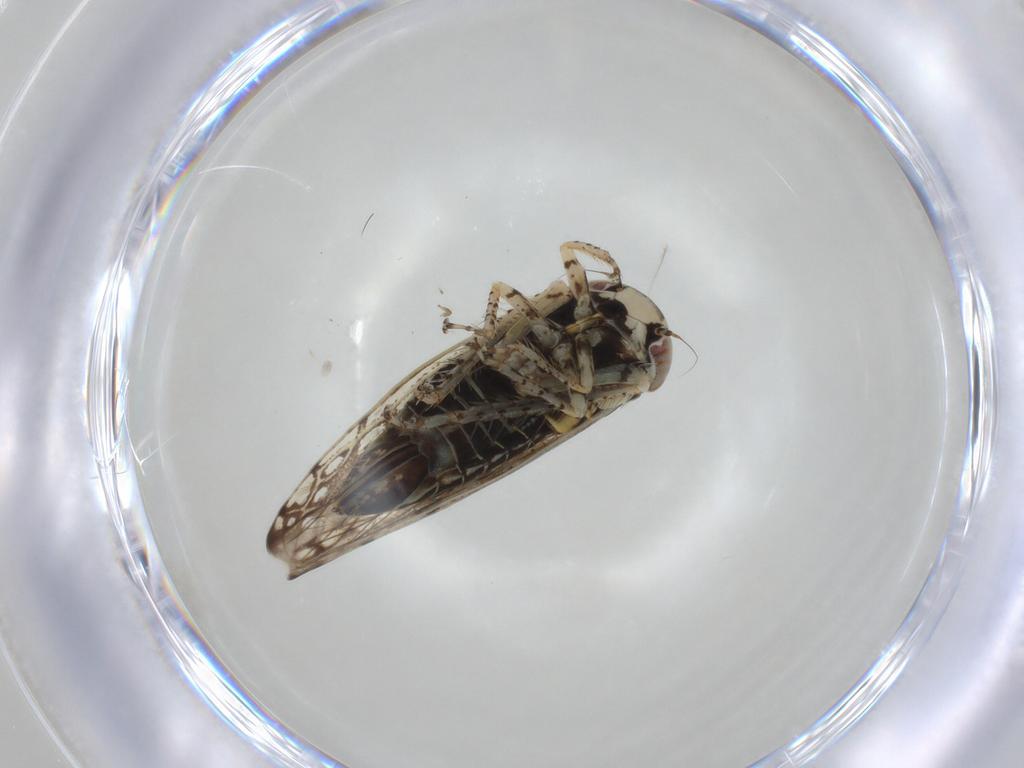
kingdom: Animalia
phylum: Arthropoda
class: Insecta
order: Hemiptera
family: Cicadellidae
